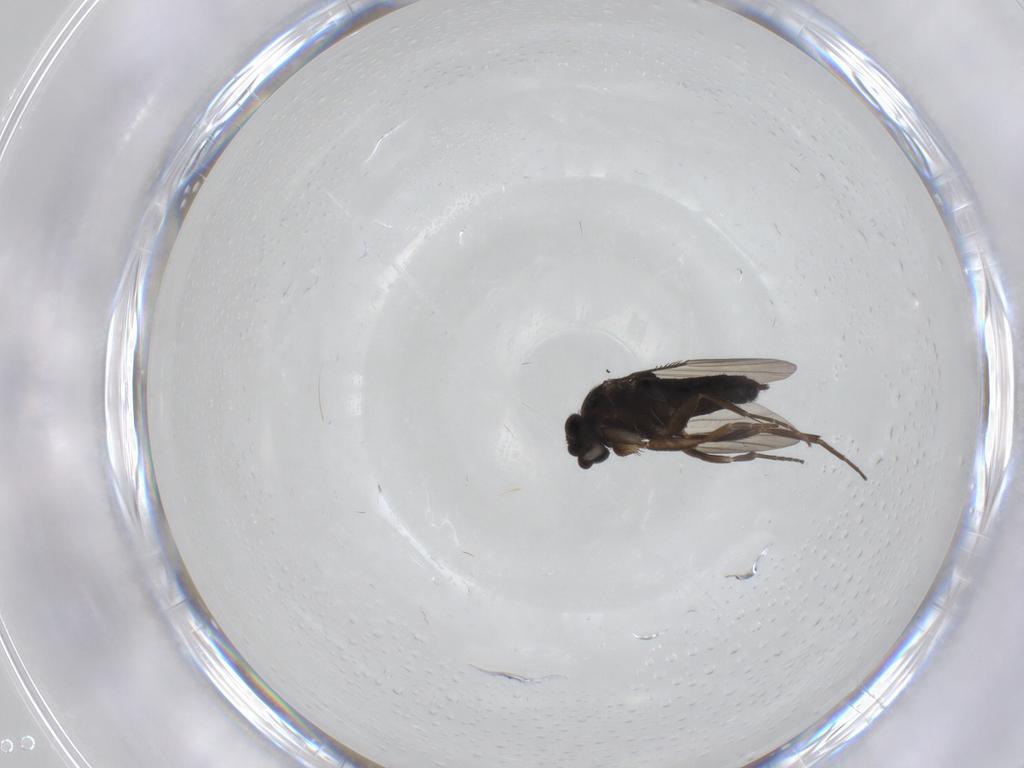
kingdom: Animalia
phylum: Arthropoda
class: Insecta
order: Diptera
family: Phoridae
